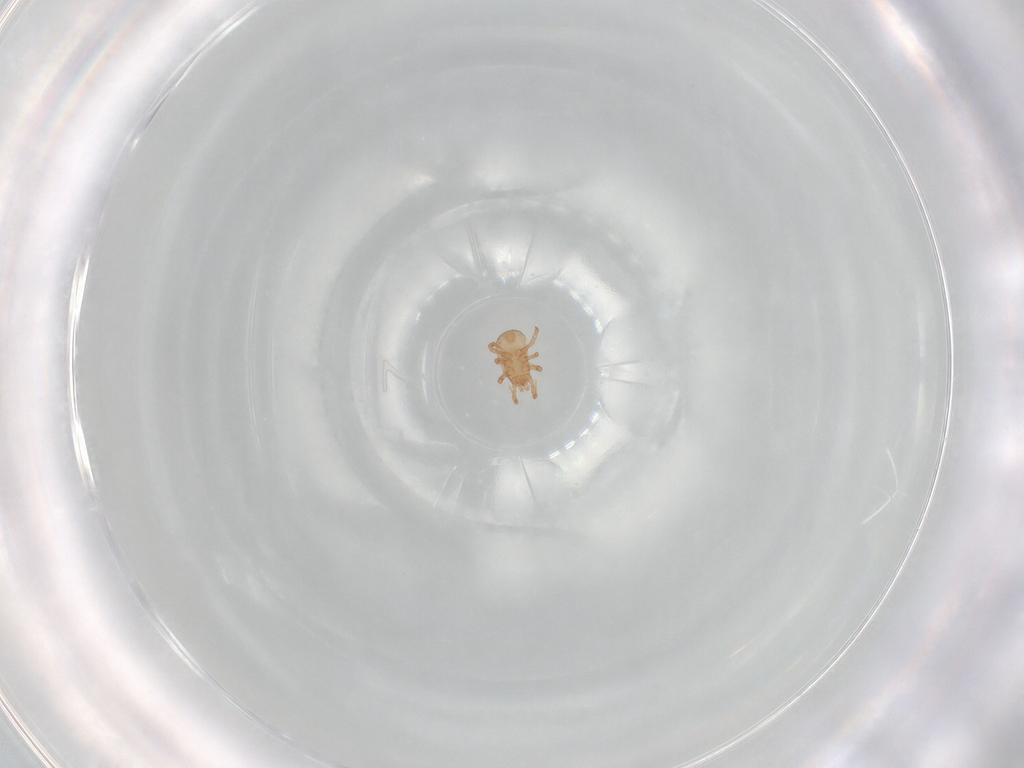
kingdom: Animalia
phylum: Arthropoda
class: Arachnida
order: Mesostigmata
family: Ascidae
